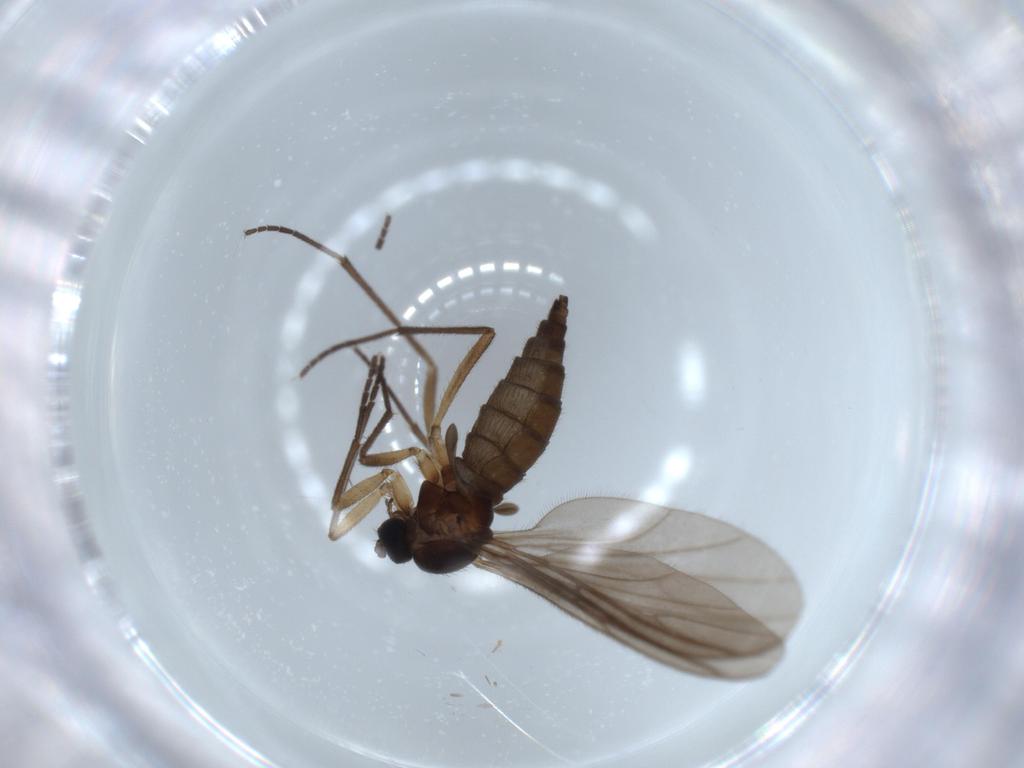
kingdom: Animalia
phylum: Arthropoda
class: Insecta
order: Diptera
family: Sciaridae
